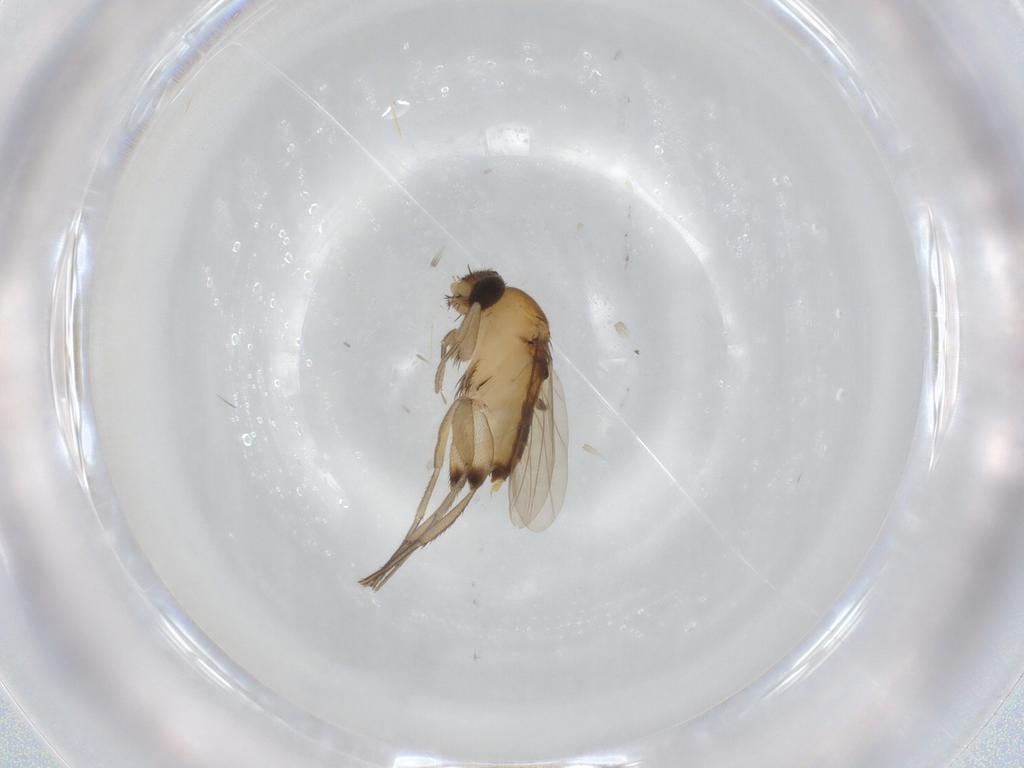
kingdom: Animalia
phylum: Arthropoda
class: Insecta
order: Diptera
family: Phoridae
